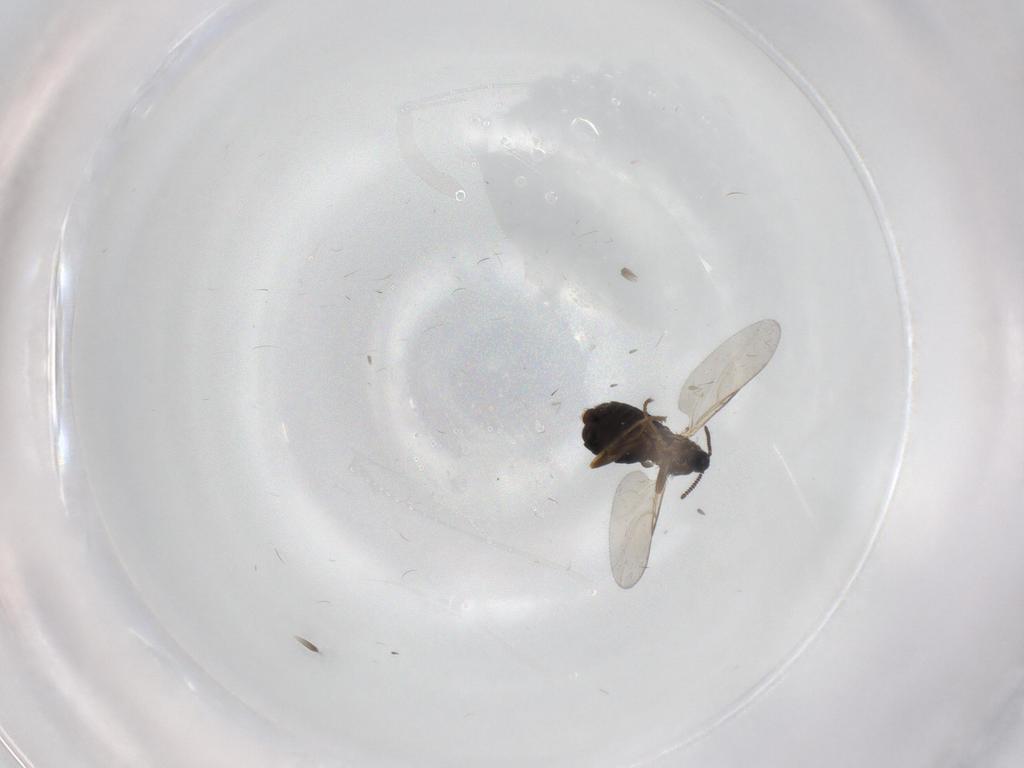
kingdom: Animalia
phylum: Arthropoda
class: Insecta
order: Diptera
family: Scatopsidae
